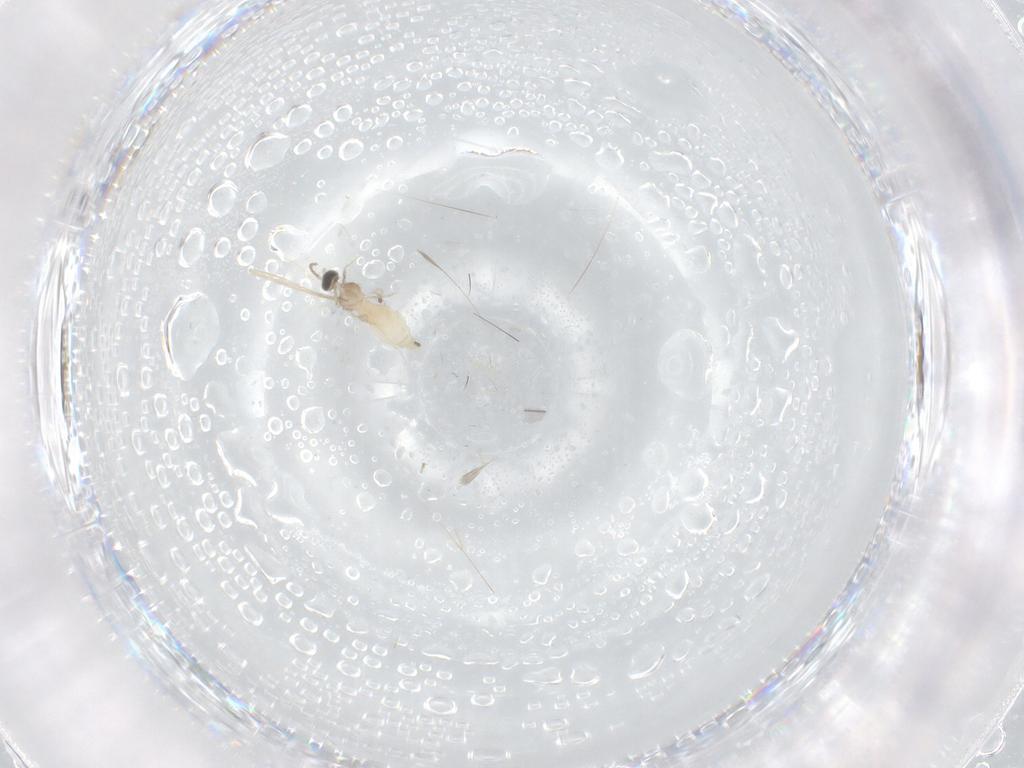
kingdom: Animalia
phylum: Arthropoda
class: Insecta
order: Diptera
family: Cecidomyiidae
